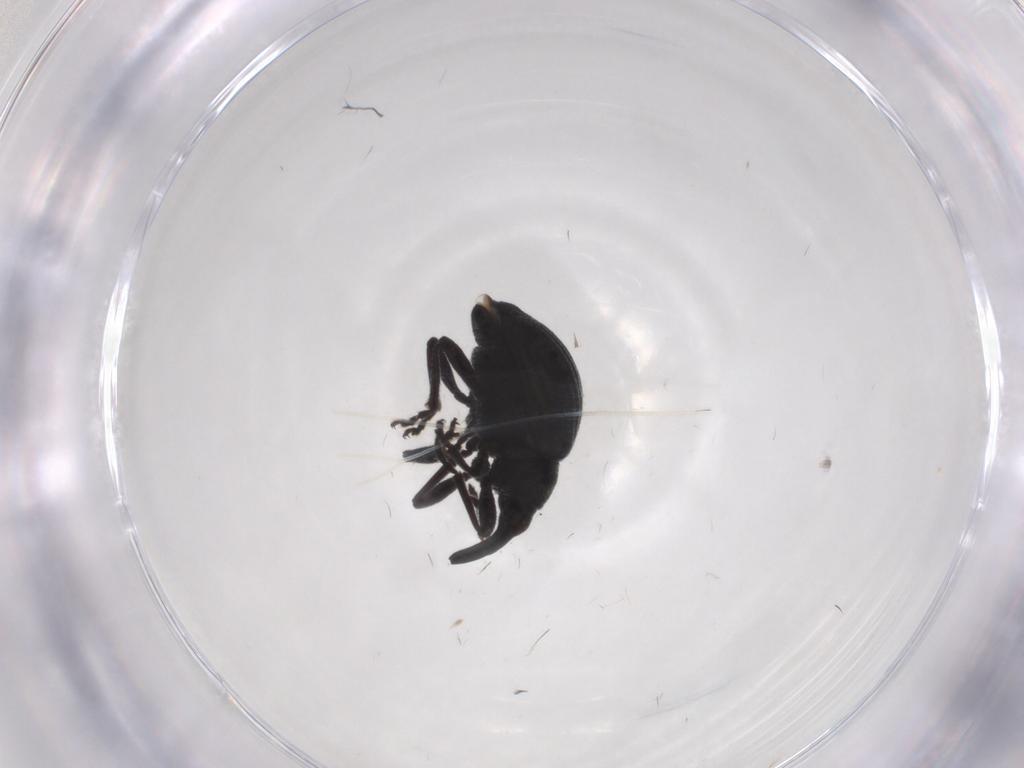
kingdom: Animalia
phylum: Arthropoda
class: Insecta
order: Coleoptera
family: Brentidae
